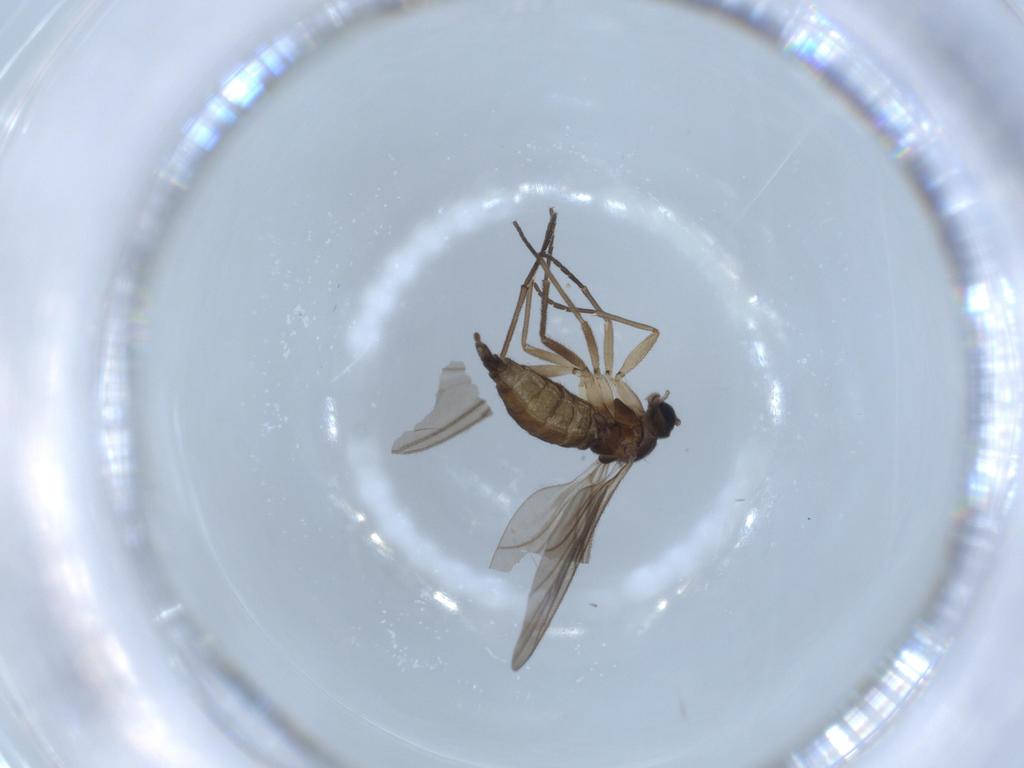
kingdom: Animalia
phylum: Arthropoda
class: Insecta
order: Diptera
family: Sciaridae
